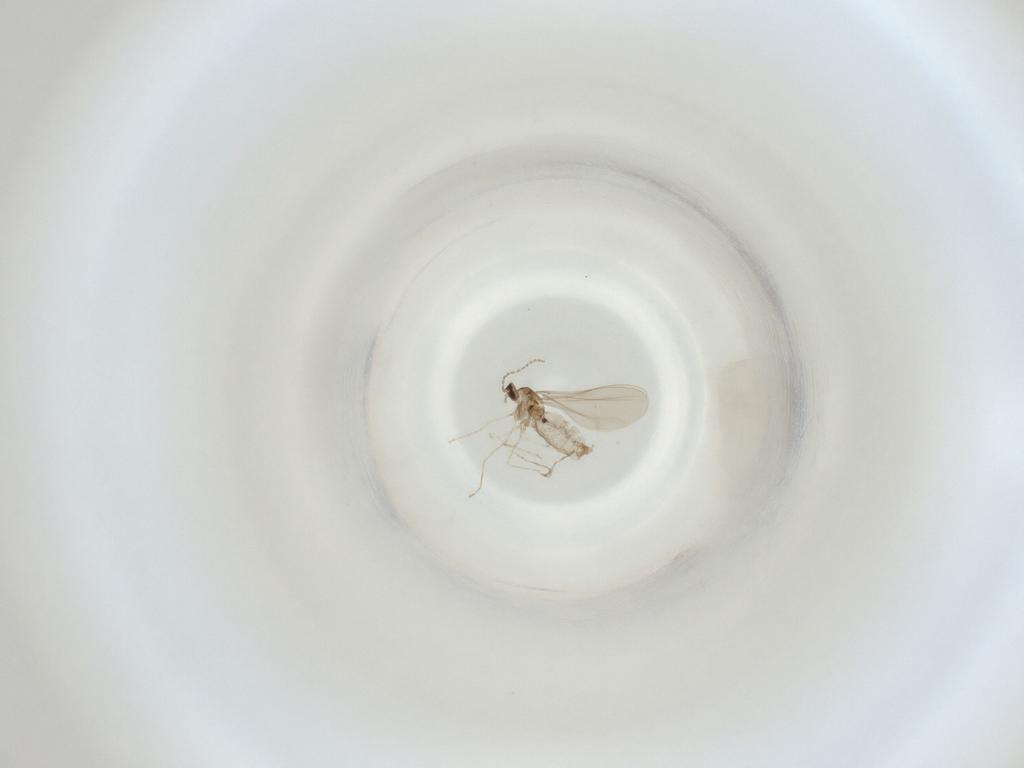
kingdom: Animalia
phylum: Arthropoda
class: Insecta
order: Diptera
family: Cecidomyiidae
